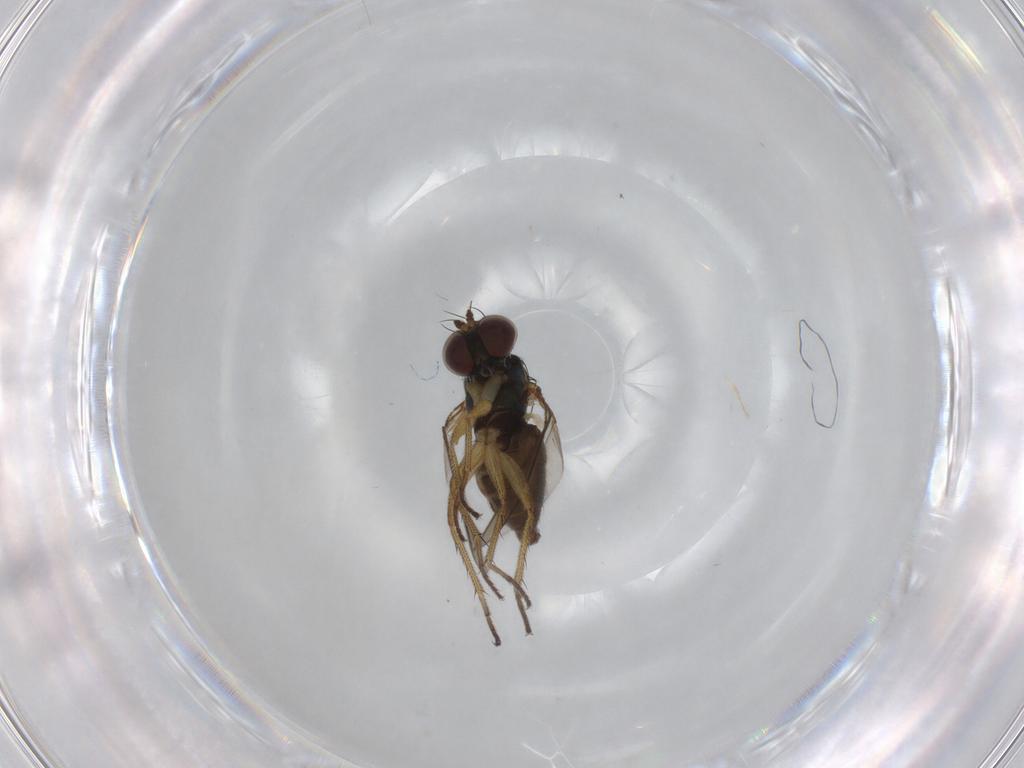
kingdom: Animalia
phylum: Arthropoda
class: Insecta
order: Diptera
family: Dolichopodidae
